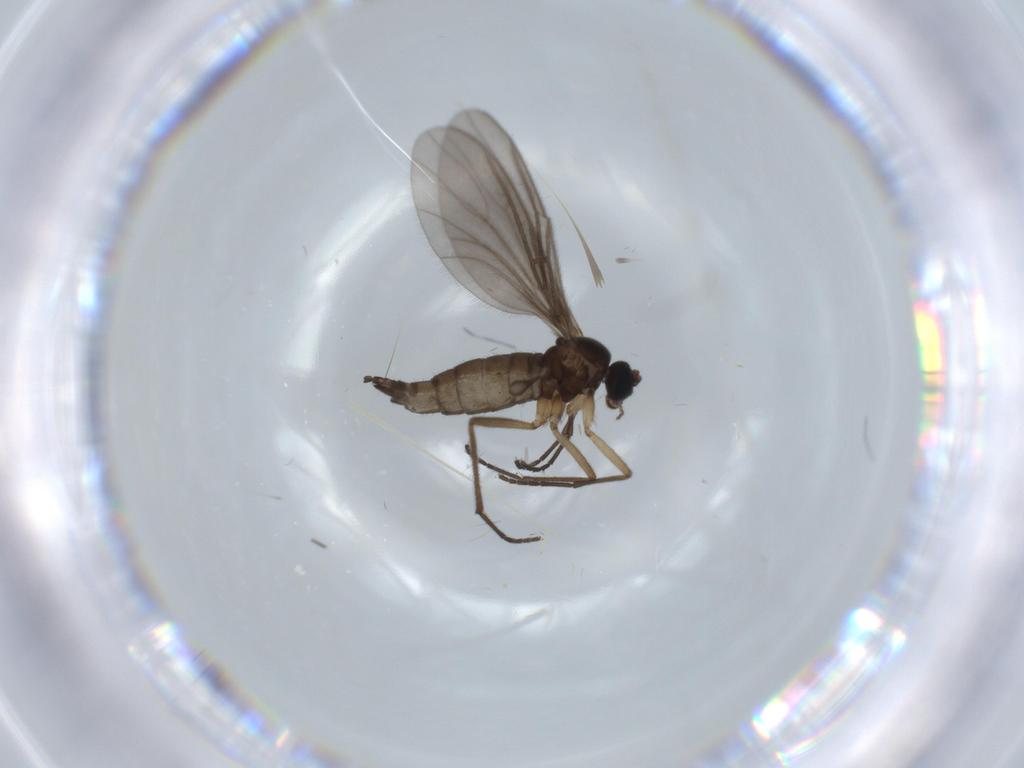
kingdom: Animalia
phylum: Arthropoda
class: Insecta
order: Diptera
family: Sciaridae
